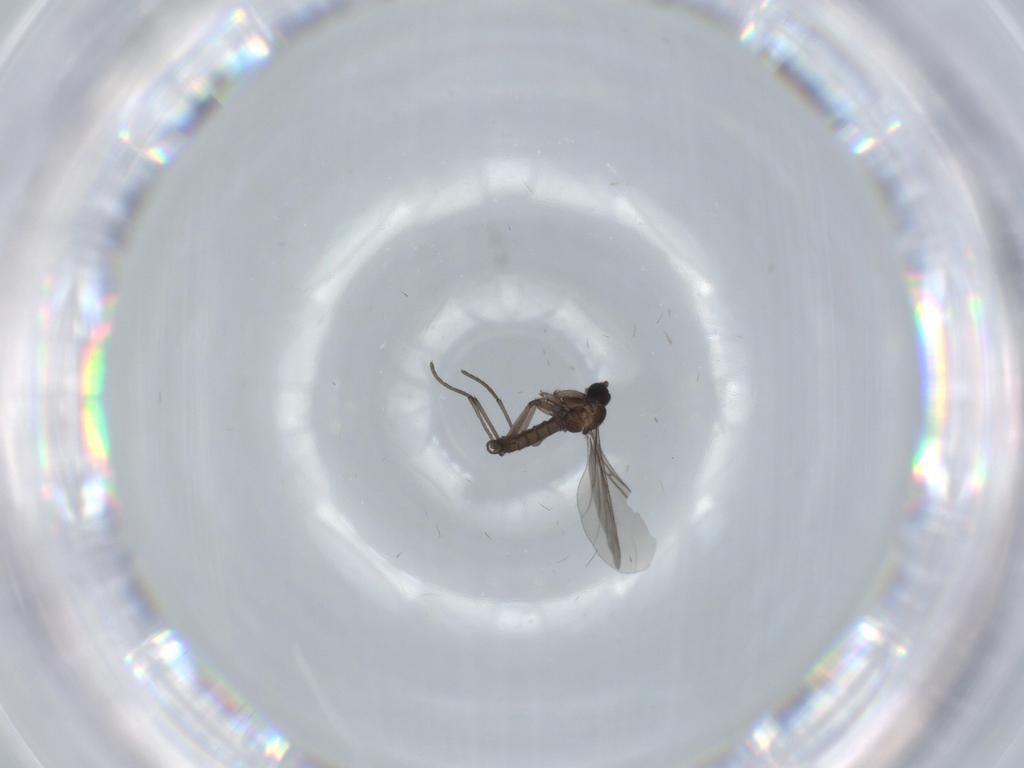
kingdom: Animalia
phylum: Arthropoda
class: Insecta
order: Diptera
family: Sciaridae
